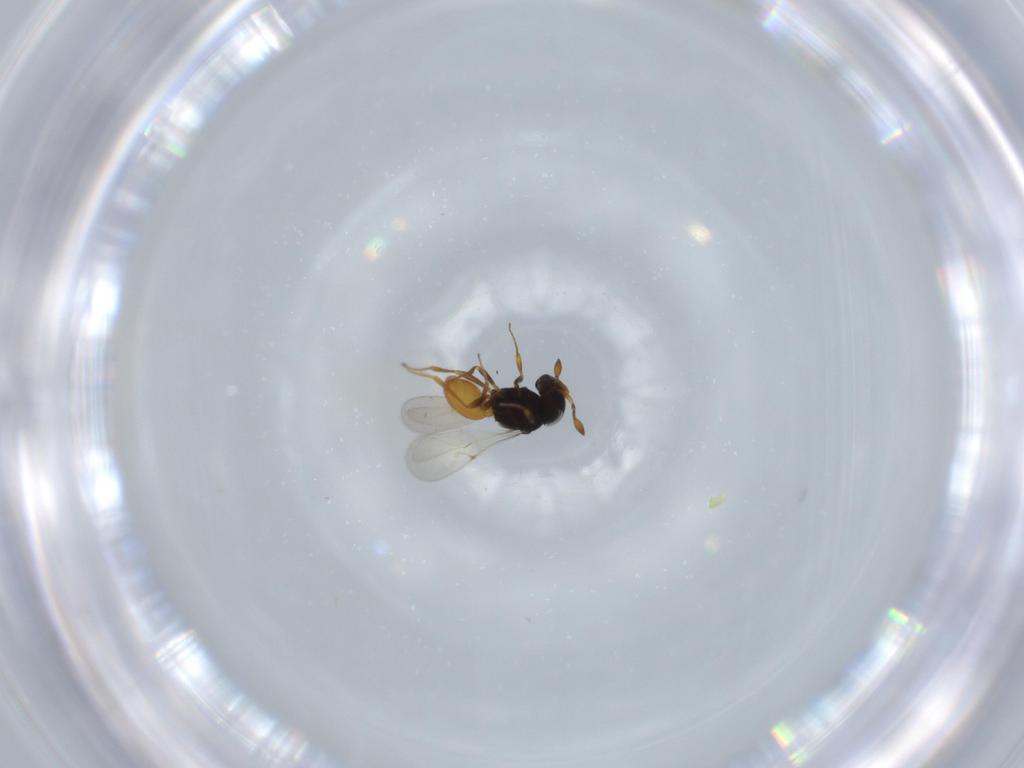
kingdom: Animalia
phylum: Arthropoda
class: Insecta
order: Hymenoptera
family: Scelionidae
